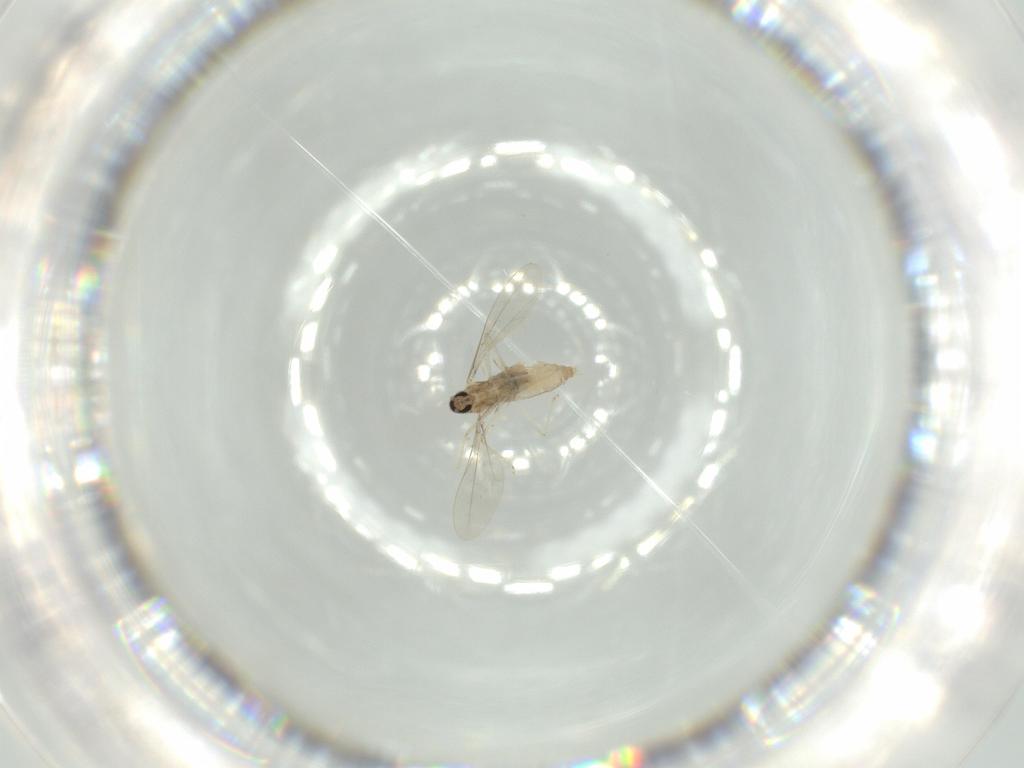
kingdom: Animalia
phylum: Arthropoda
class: Insecta
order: Diptera
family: Cecidomyiidae
